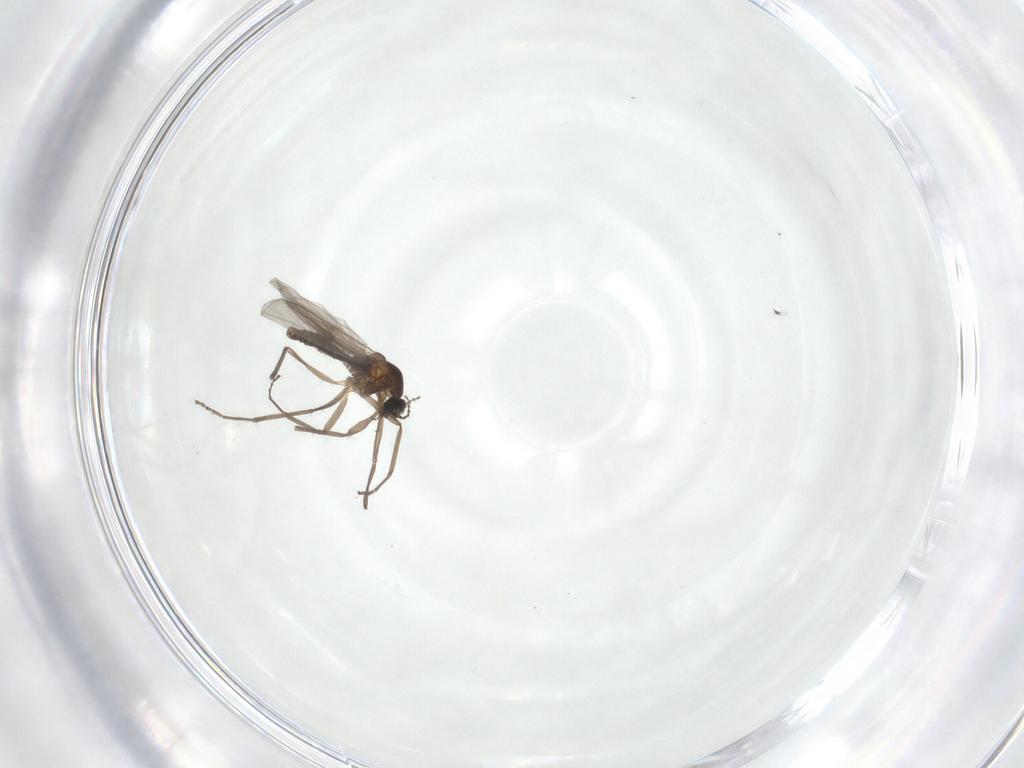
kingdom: Animalia
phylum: Arthropoda
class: Insecta
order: Diptera
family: Cecidomyiidae
